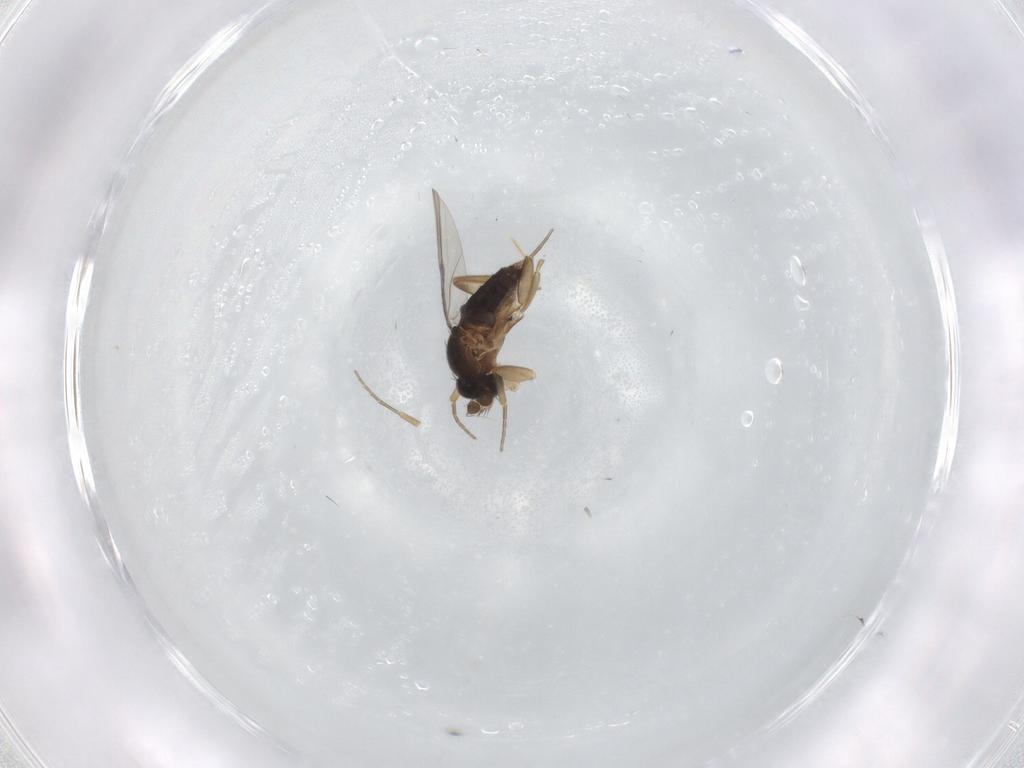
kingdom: Animalia
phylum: Arthropoda
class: Insecta
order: Diptera
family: Phoridae
